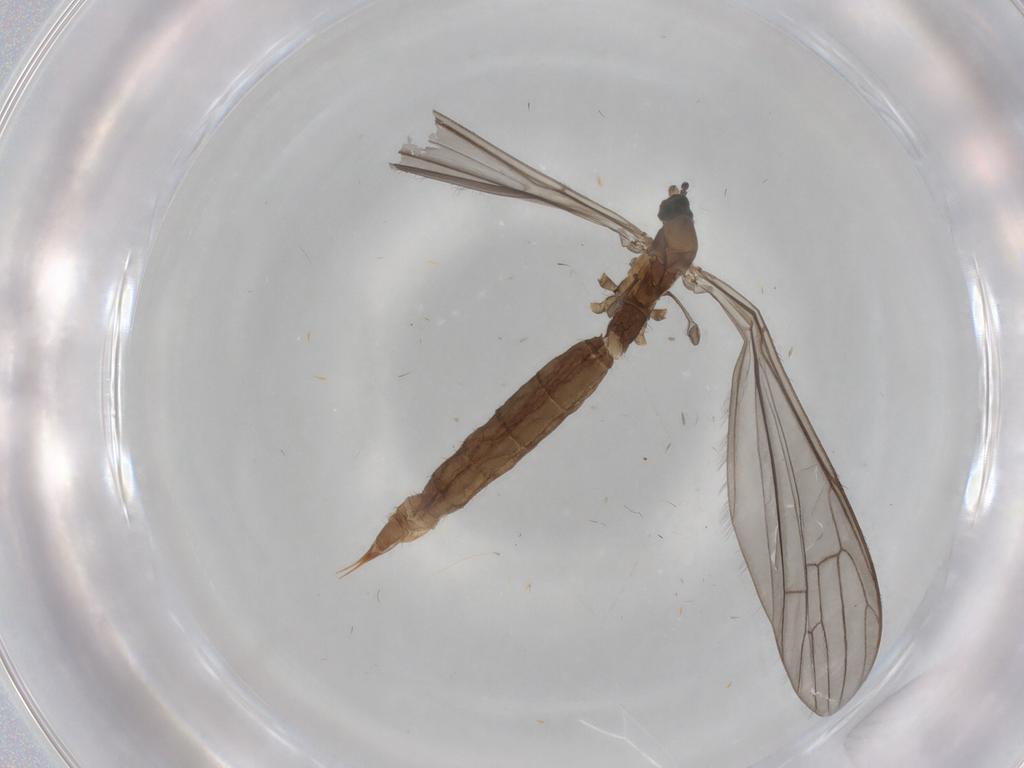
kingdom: Animalia
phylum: Arthropoda
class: Insecta
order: Diptera
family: Limoniidae
